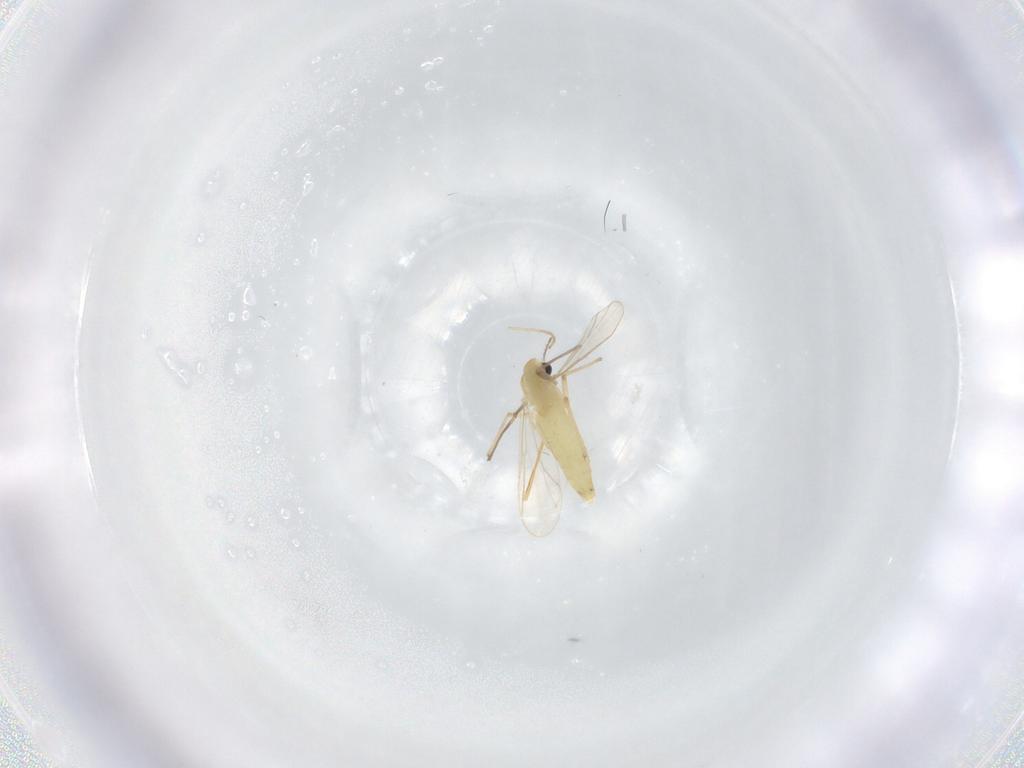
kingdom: Animalia
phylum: Arthropoda
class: Insecta
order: Diptera
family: Chironomidae
